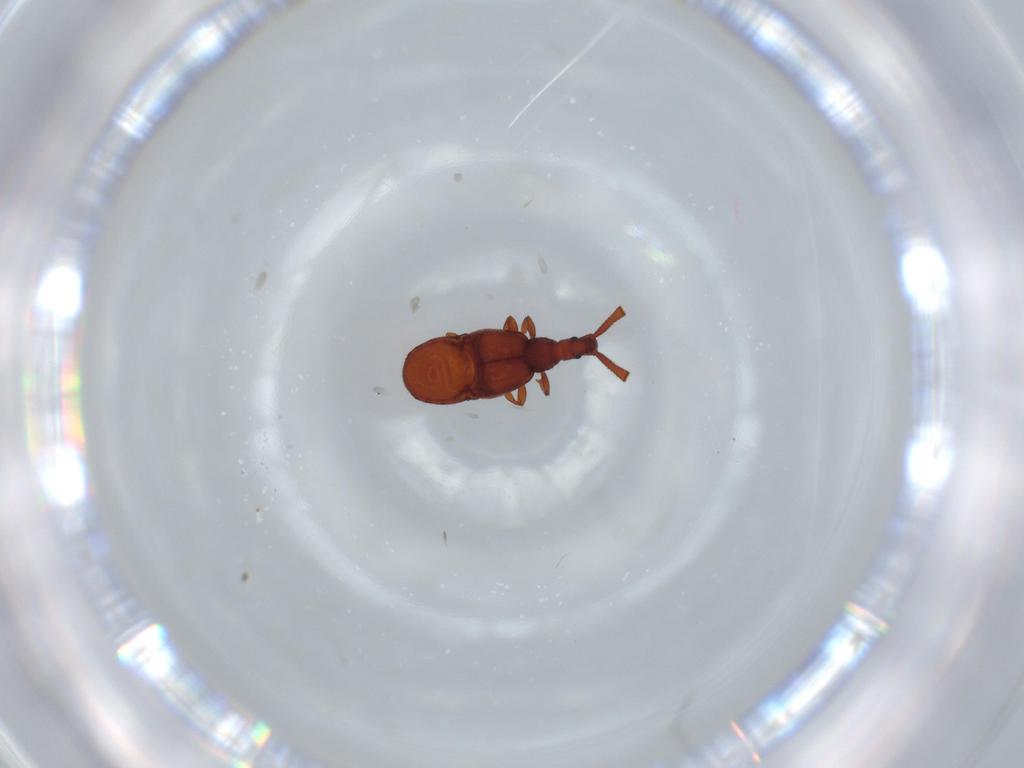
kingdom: Animalia
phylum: Arthropoda
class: Insecta
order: Coleoptera
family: Staphylinidae
